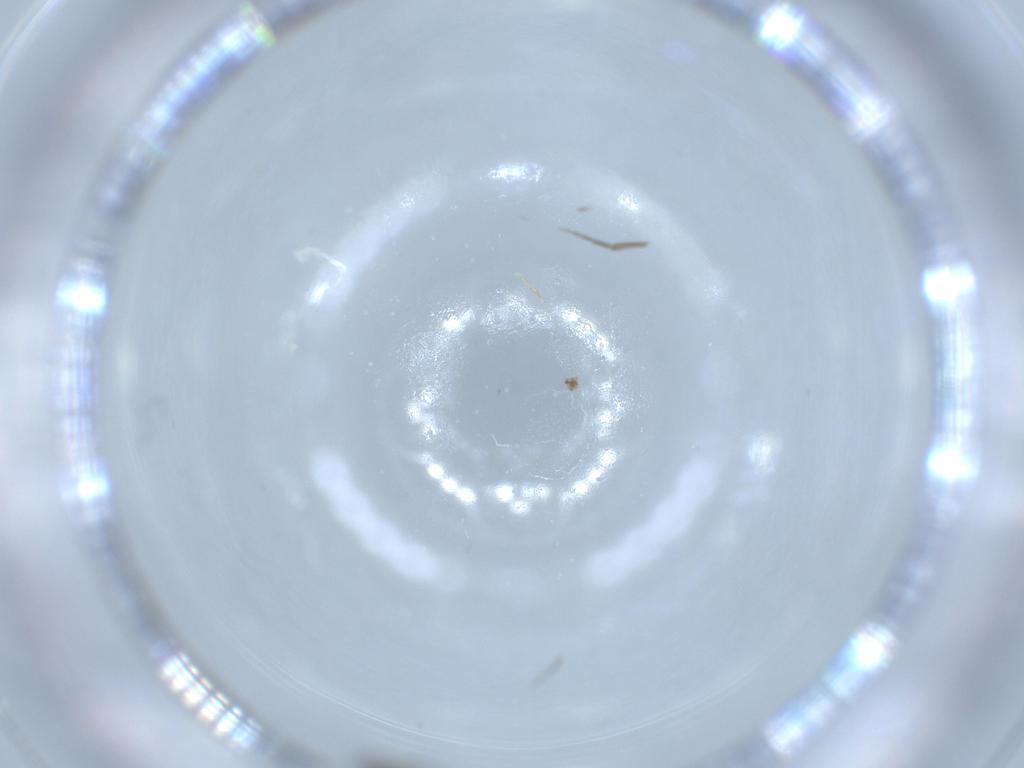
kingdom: Animalia
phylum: Arthropoda
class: Insecta
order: Diptera
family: Phoridae
